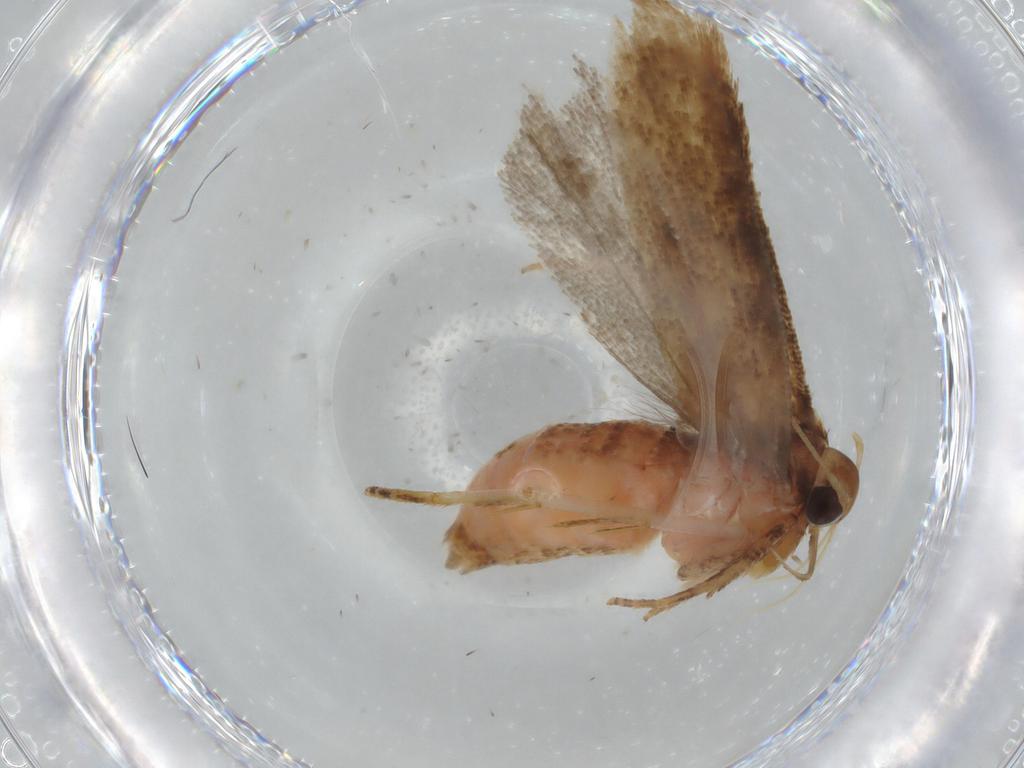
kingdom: Animalia
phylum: Arthropoda
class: Insecta
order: Lepidoptera
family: Gelechiidae
